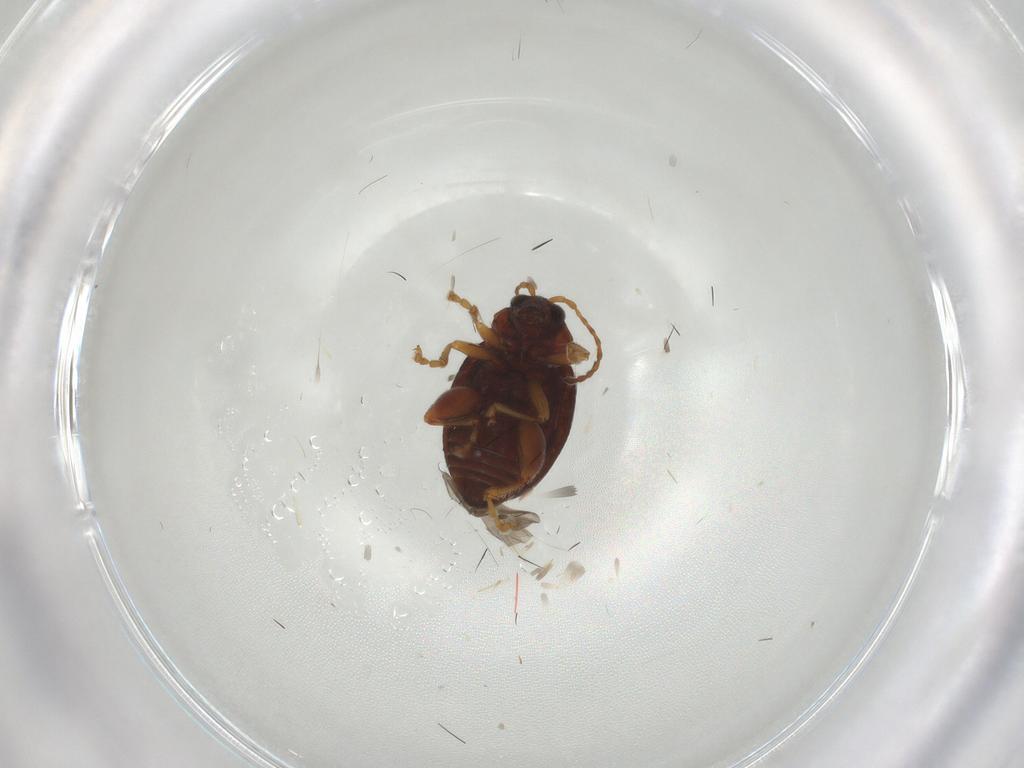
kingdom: Animalia
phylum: Arthropoda
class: Insecta
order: Coleoptera
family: Chrysomelidae
